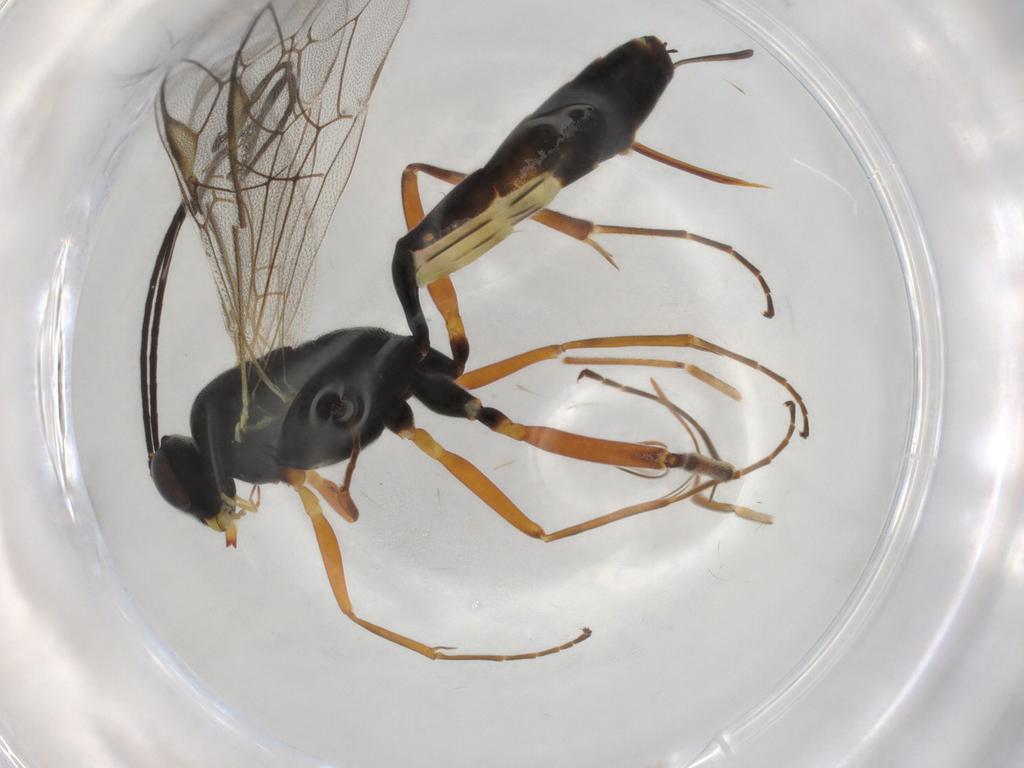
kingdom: Animalia
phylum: Arthropoda
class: Insecta
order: Hymenoptera
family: Ichneumonidae
